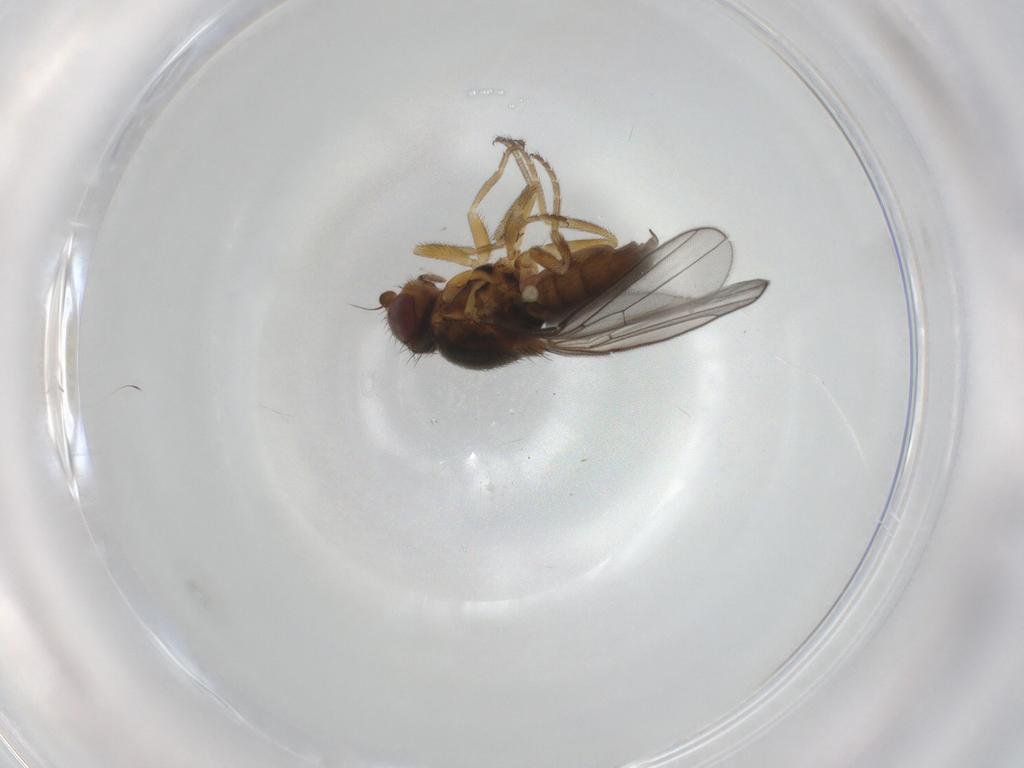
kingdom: Animalia
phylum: Arthropoda
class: Insecta
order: Diptera
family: Chloropidae
